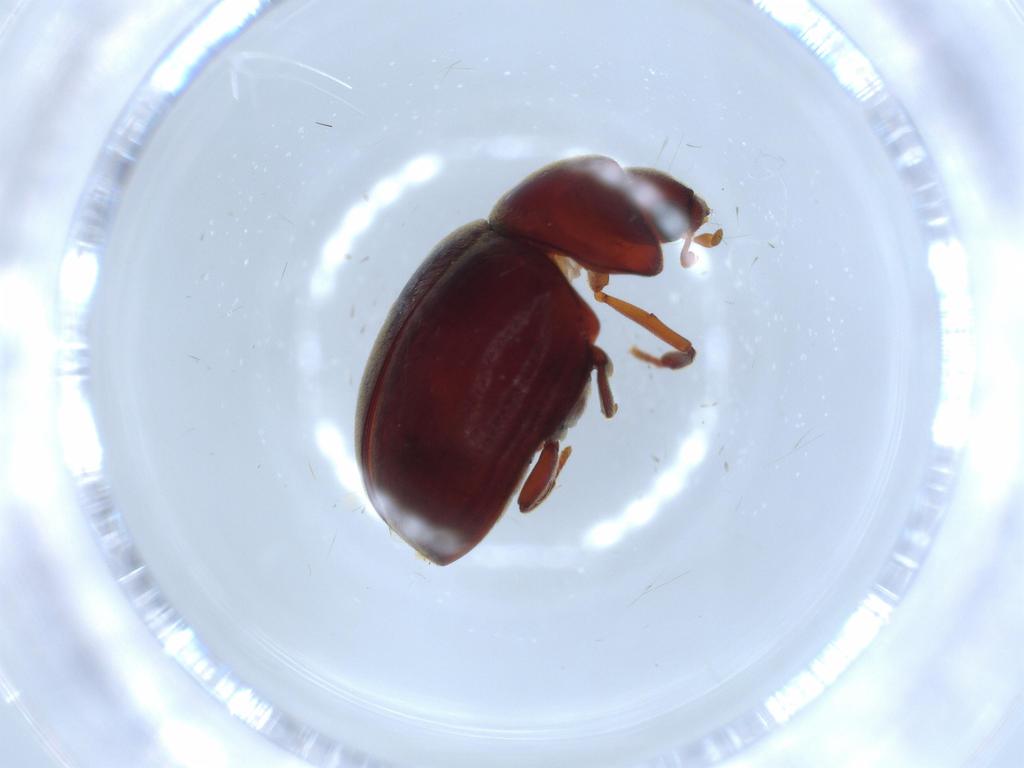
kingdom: Animalia
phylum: Arthropoda
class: Insecta
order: Coleoptera
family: Ptinidae
